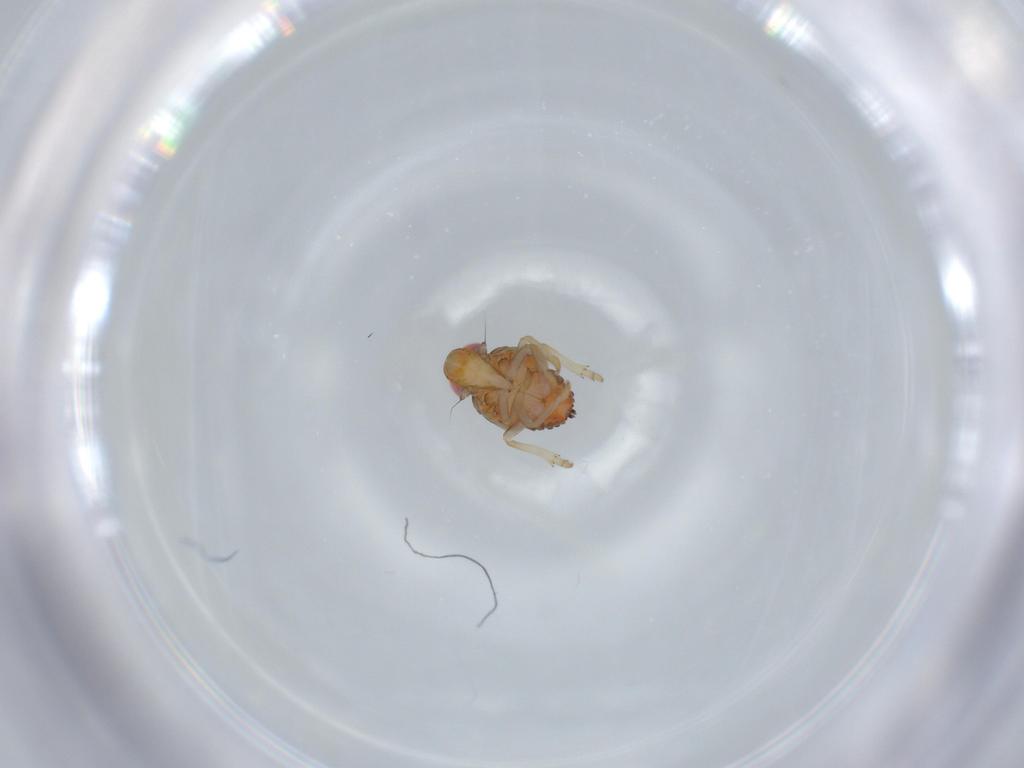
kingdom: Animalia
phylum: Arthropoda
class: Insecta
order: Hemiptera
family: Issidae
